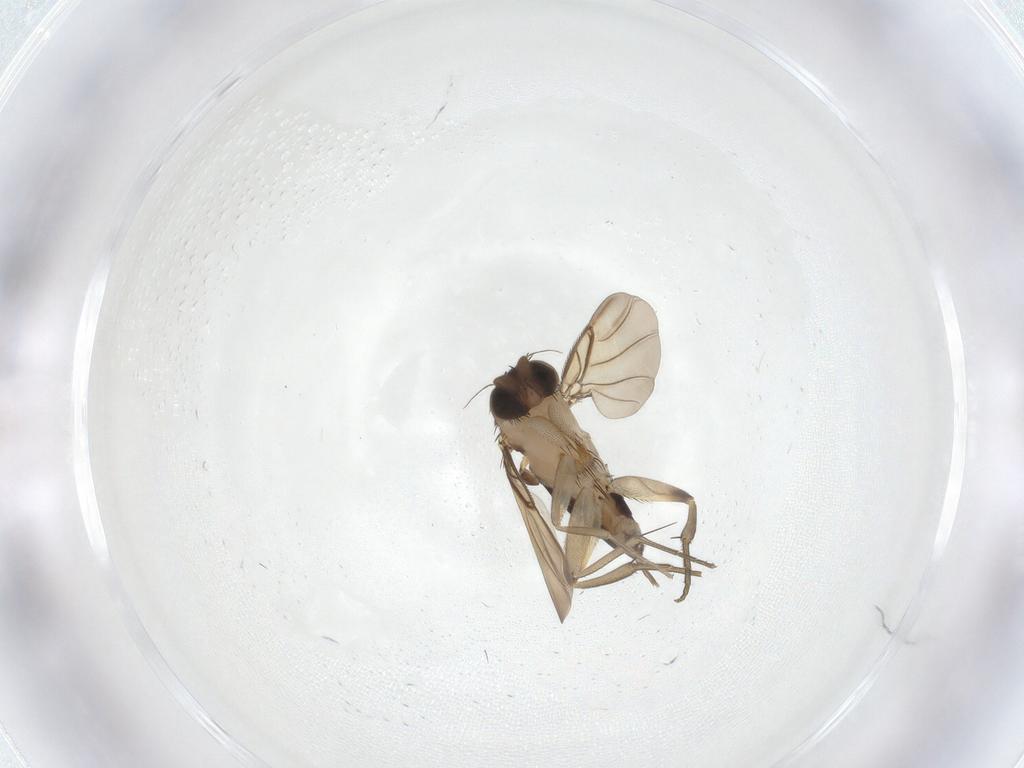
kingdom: Animalia
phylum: Arthropoda
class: Insecta
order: Diptera
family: Phoridae
